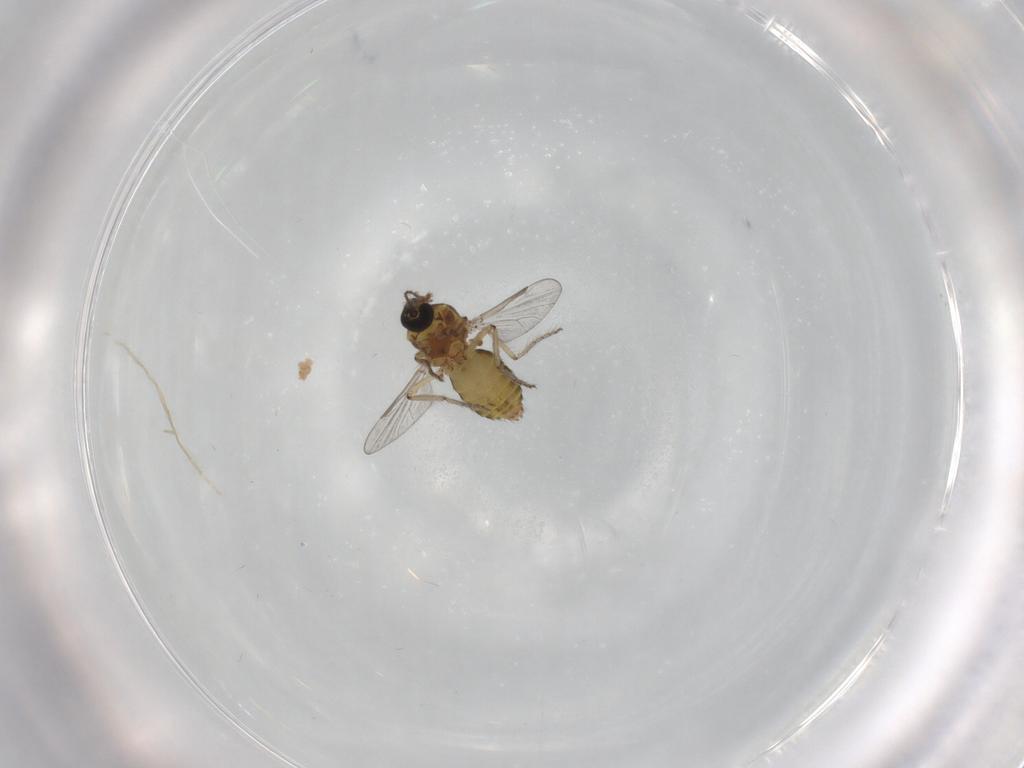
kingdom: Animalia
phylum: Arthropoda
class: Insecta
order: Diptera
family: Ceratopogonidae
